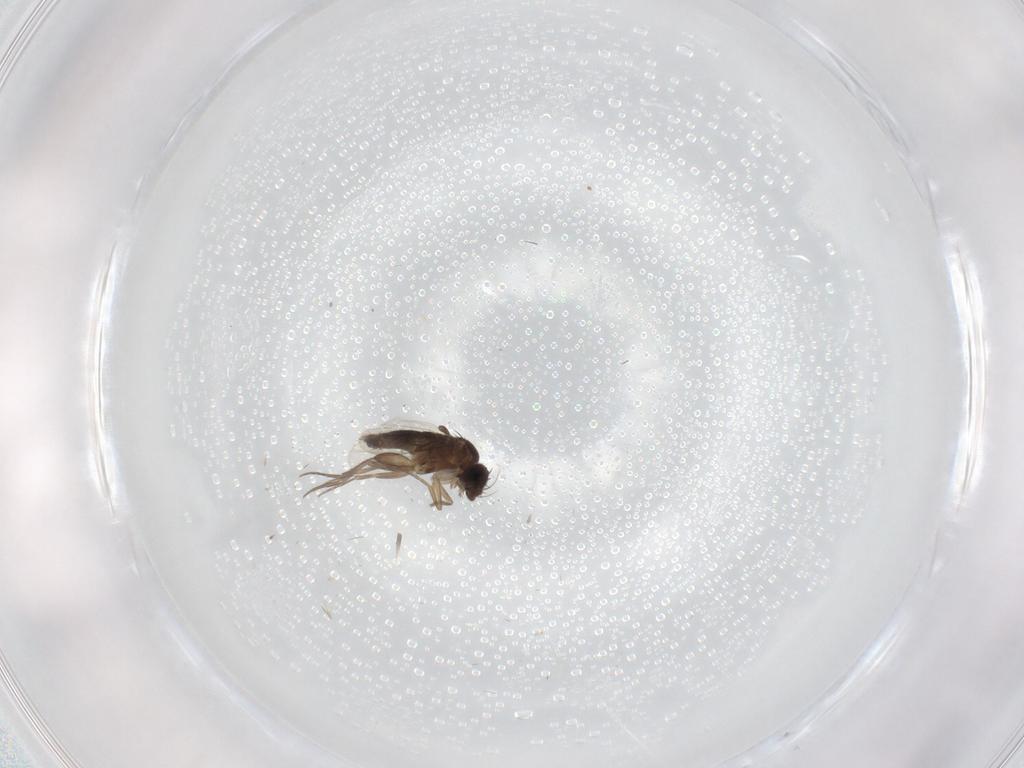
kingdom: Animalia
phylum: Arthropoda
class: Insecta
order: Diptera
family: Phoridae
